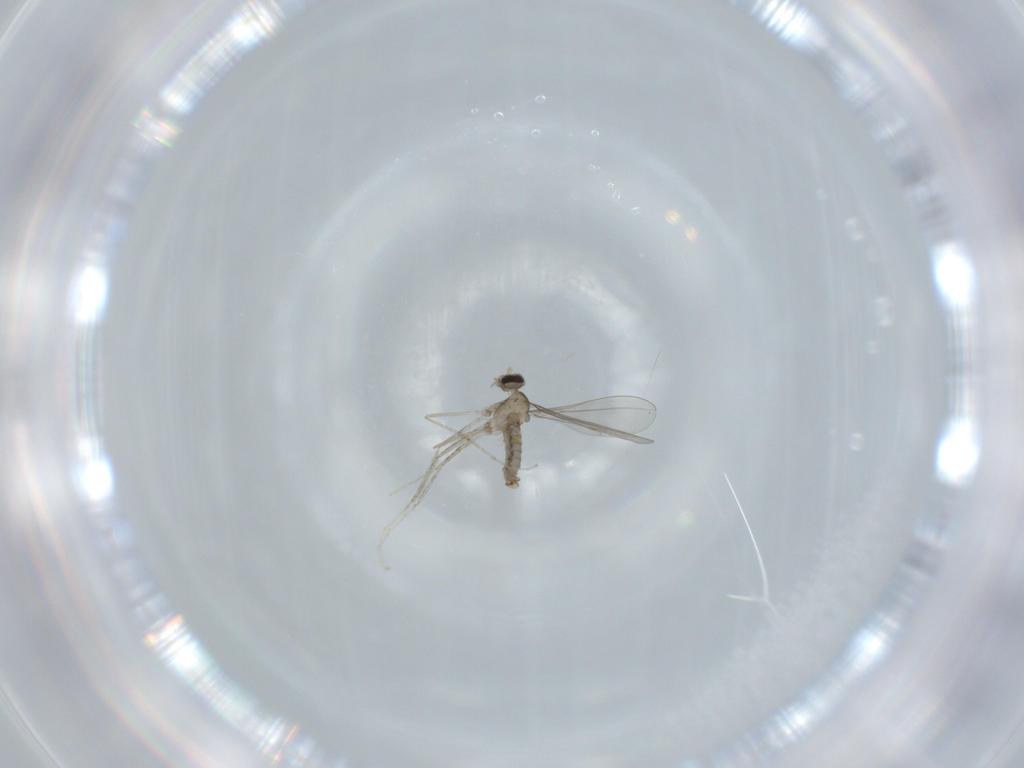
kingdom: Animalia
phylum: Arthropoda
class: Insecta
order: Diptera
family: Cecidomyiidae
